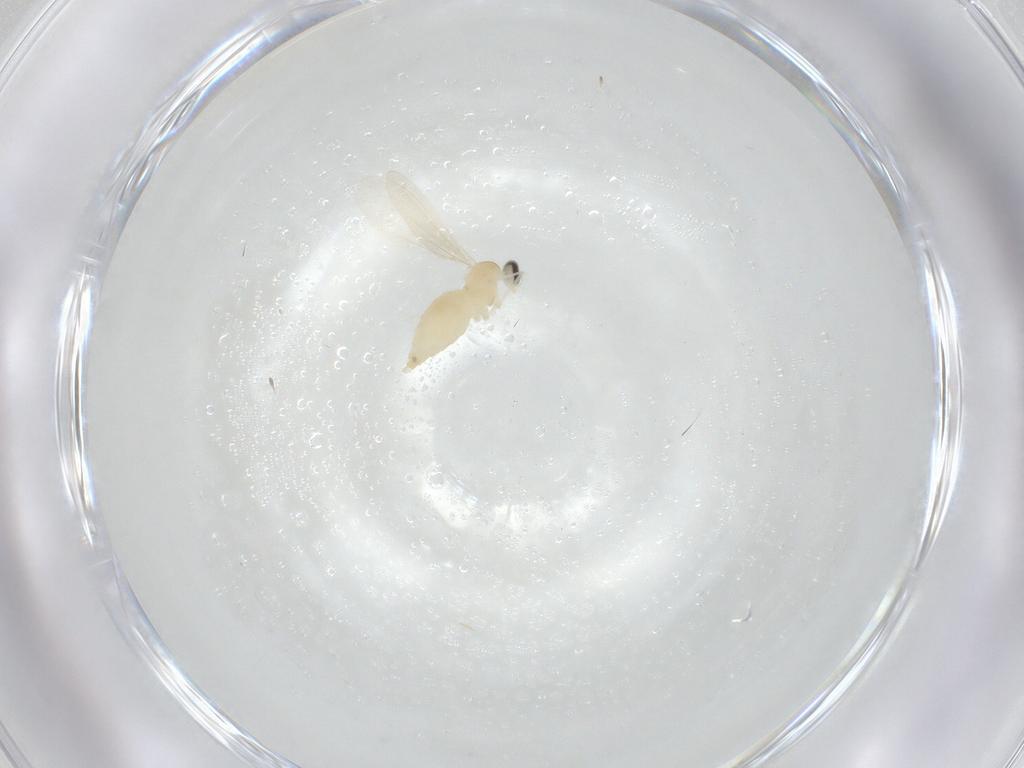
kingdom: Animalia
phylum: Arthropoda
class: Insecta
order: Diptera
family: Cecidomyiidae
